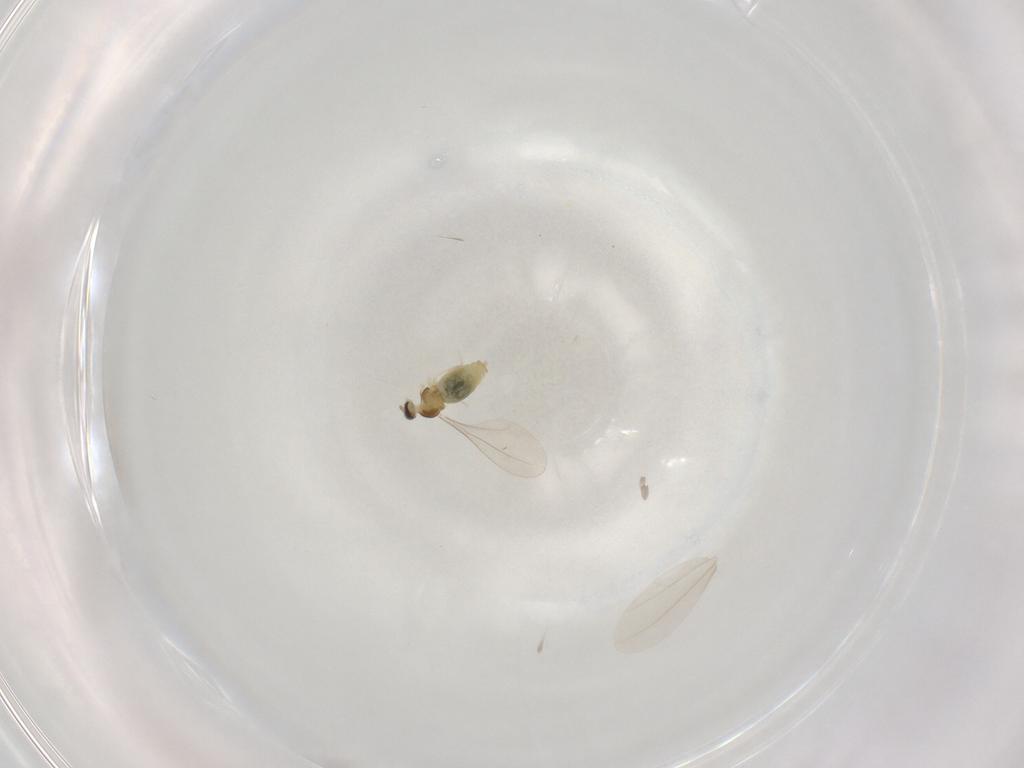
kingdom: Animalia
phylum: Arthropoda
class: Insecta
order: Diptera
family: Cecidomyiidae
